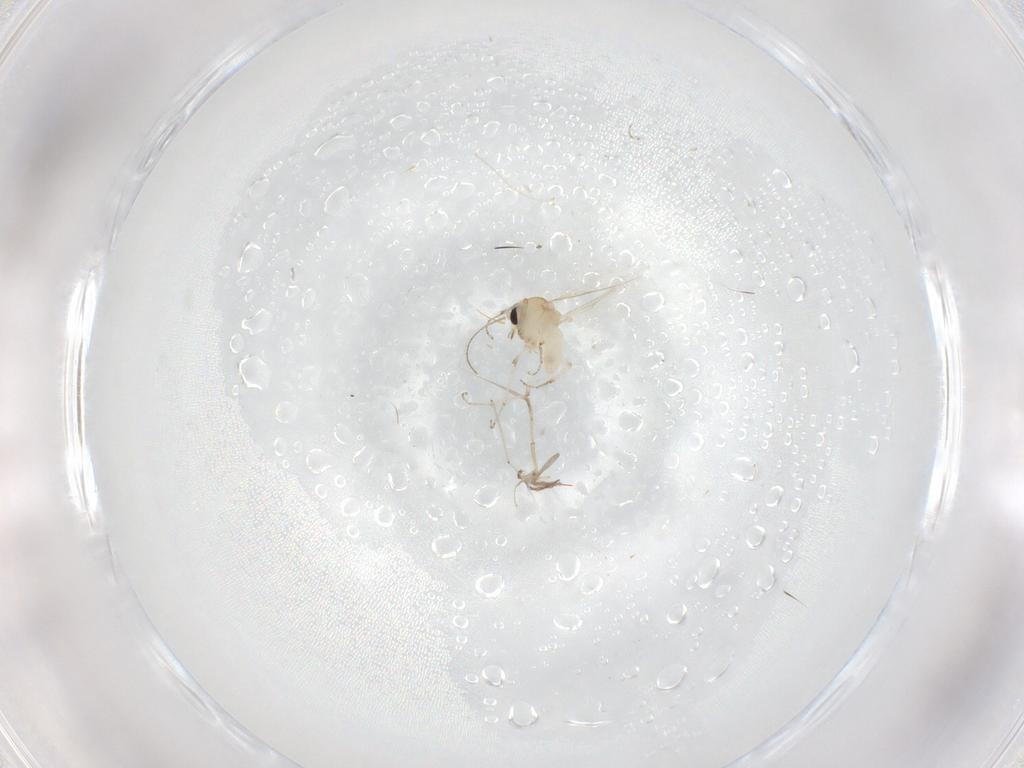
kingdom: Animalia
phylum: Arthropoda
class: Insecta
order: Diptera
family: Ceratopogonidae
